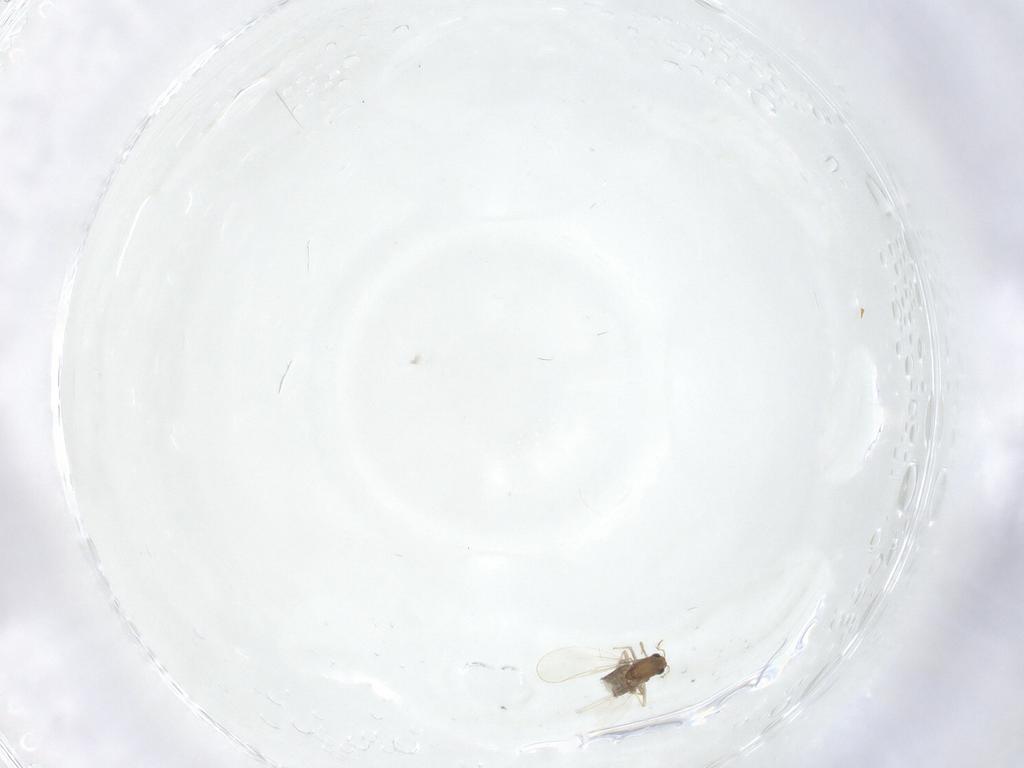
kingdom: Animalia
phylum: Arthropoda
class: Insecta
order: Diptera
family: Chironomidae
